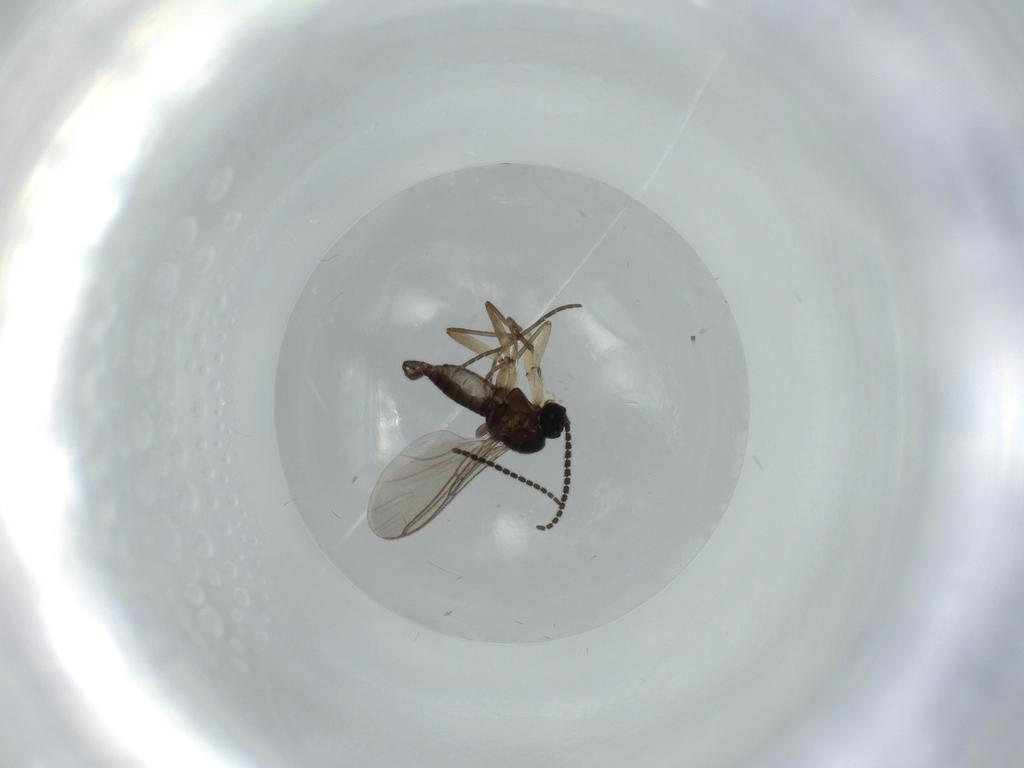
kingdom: Animalia
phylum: Arthropoda
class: Insecta
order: Diptera
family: Sciaridae
